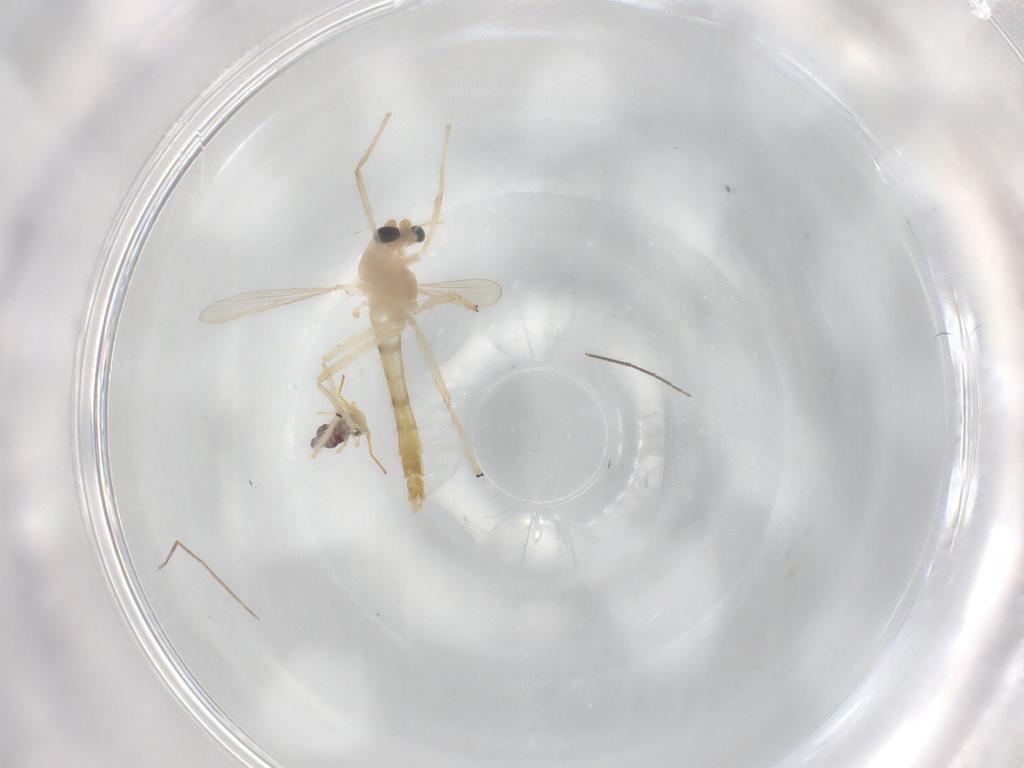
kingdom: Animalia
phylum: Arthropoda
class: Insecta
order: Diptera
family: Chironomidae
